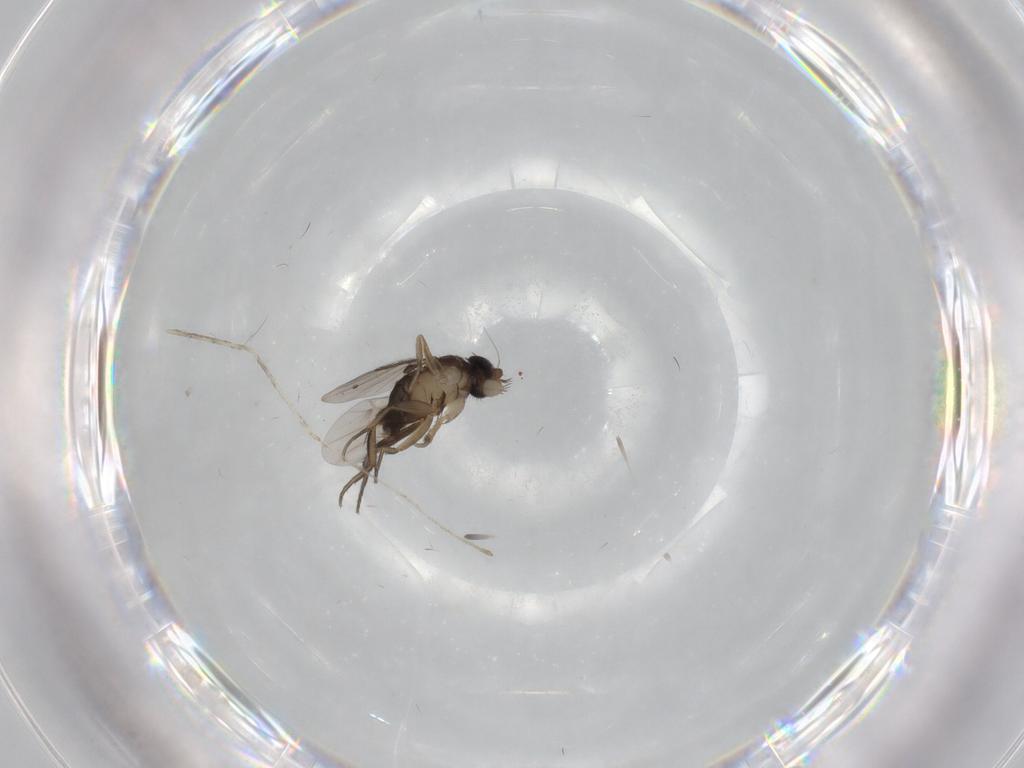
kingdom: Animalia
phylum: Arthropoda
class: Insecta
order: Diptera
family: Phoridae
